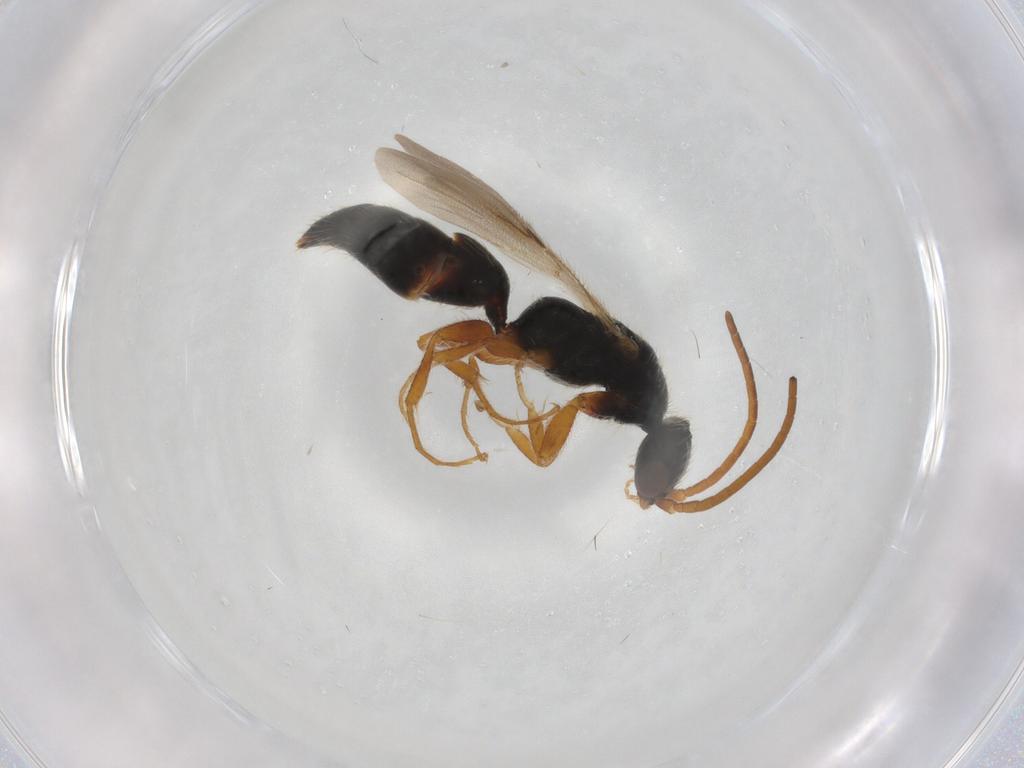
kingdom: Animalia
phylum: Arthropoda
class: Insecta
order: Hymenoptera
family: Bethylidae
